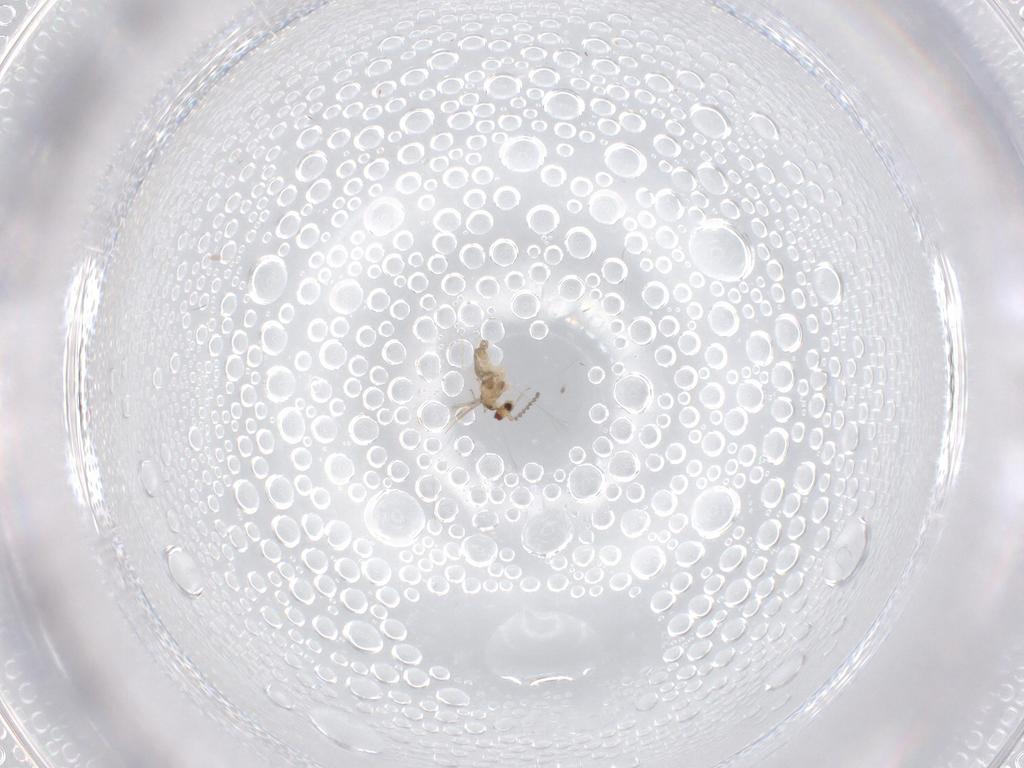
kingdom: Animalia
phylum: Arthropoda
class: Insecta
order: Diptera
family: Cecidomyiidae
